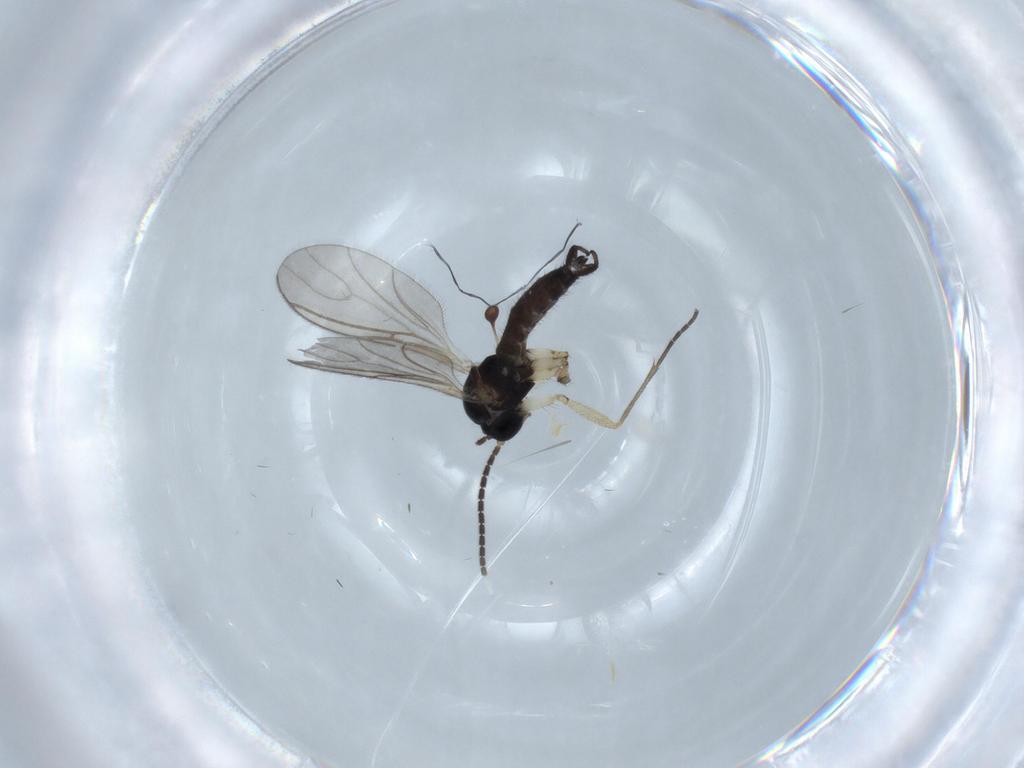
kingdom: Animalia
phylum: Arthropoda
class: Insecta
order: Diptera
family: Sciaridae
